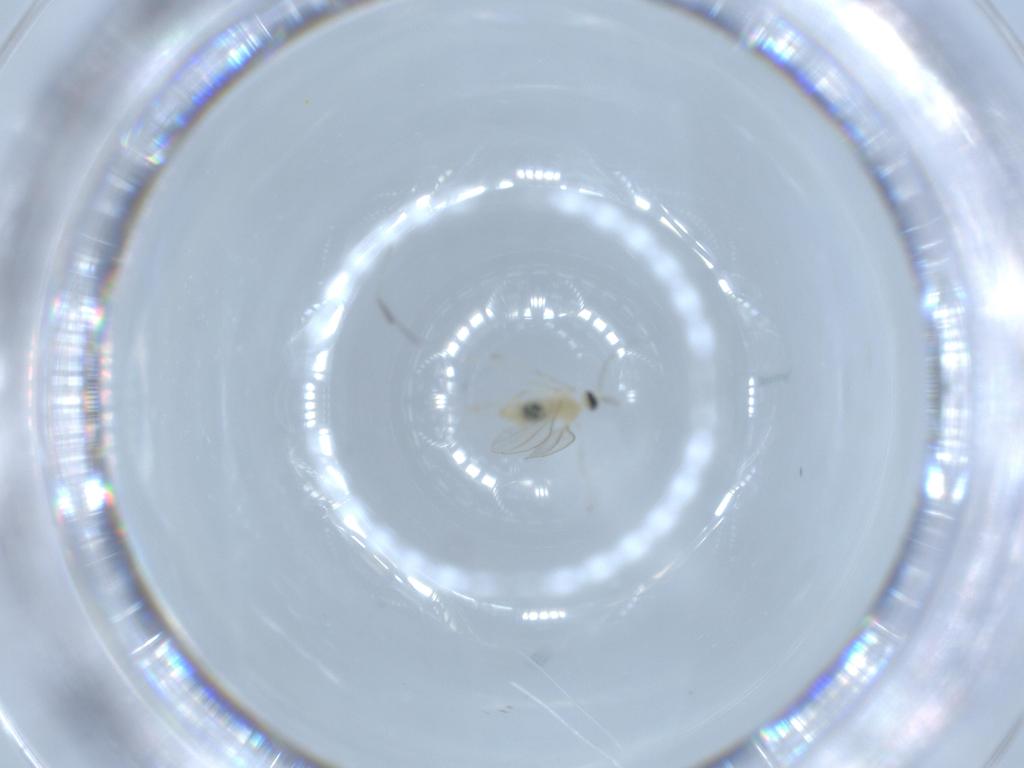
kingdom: Animalia
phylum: Arthropoda
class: Insecta
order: Diptera
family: Cecidomyiidae
